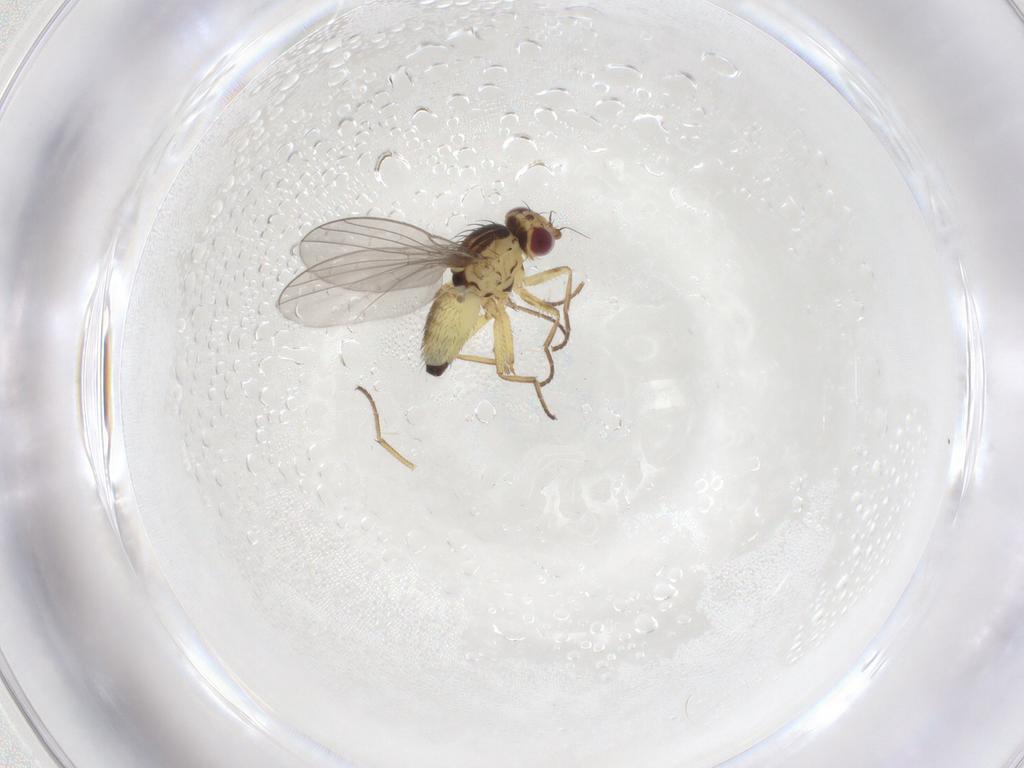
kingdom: Animalia
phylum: Arthropoda
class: Insecta
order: Diptera
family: Agromyzidae
